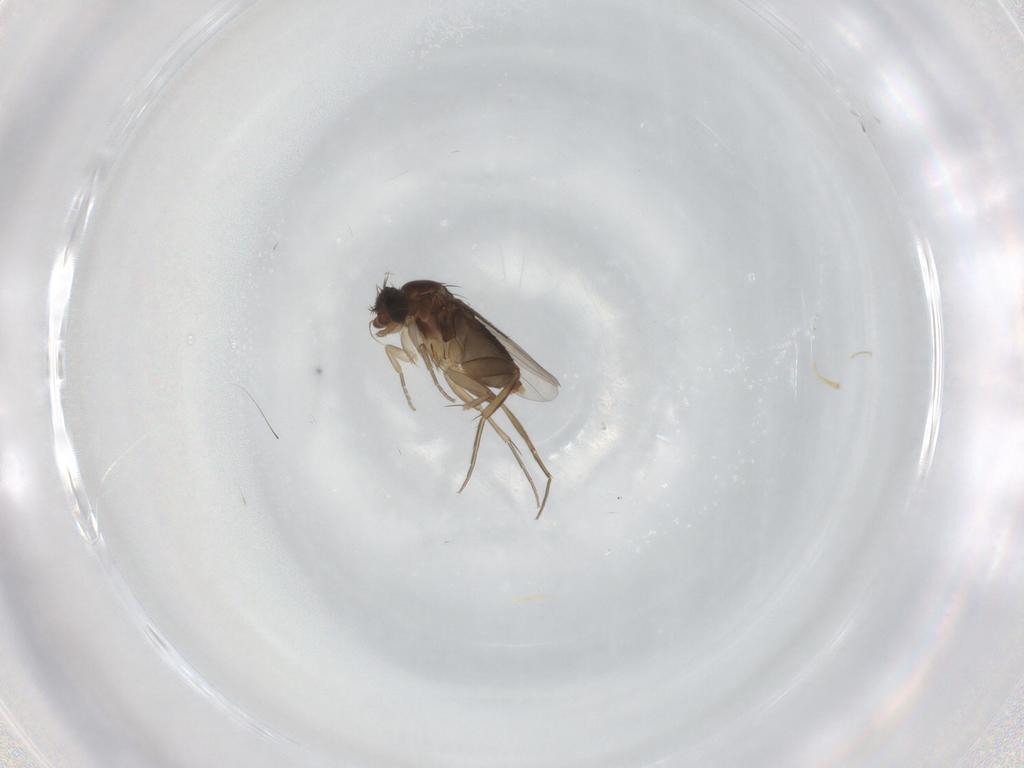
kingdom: Animalia
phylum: Arthropoda
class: Insecta
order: Diptera
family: Phoridae
